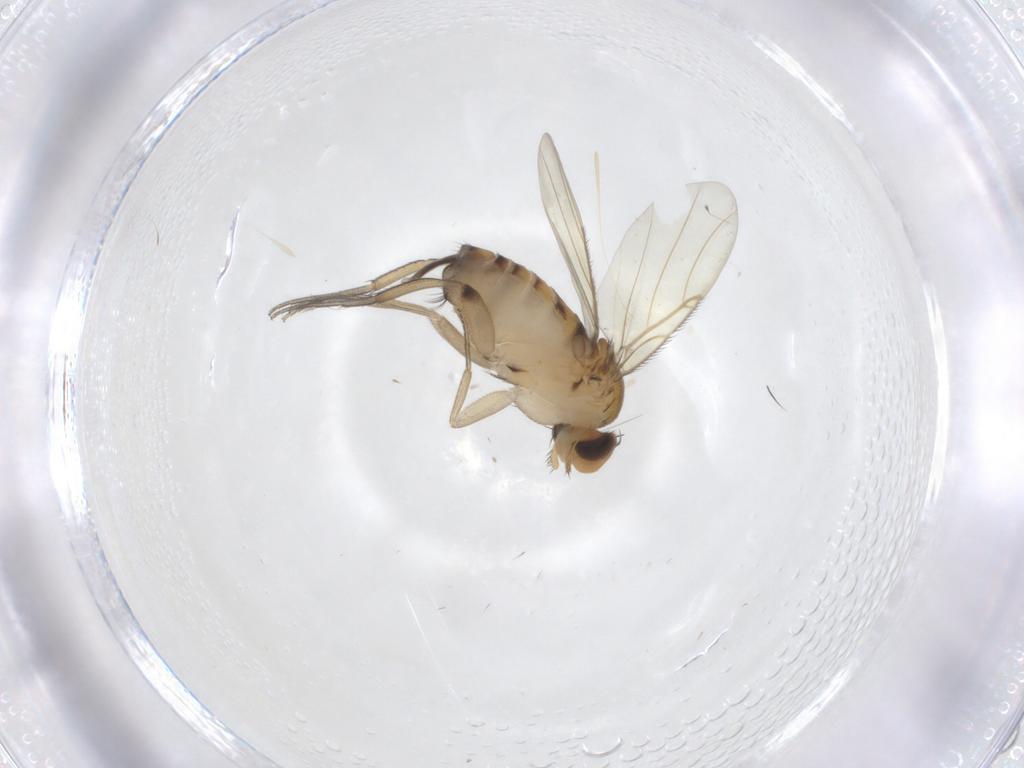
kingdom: Animalia
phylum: Arthropoda
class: Insecta
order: Diptera
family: Phoridae
